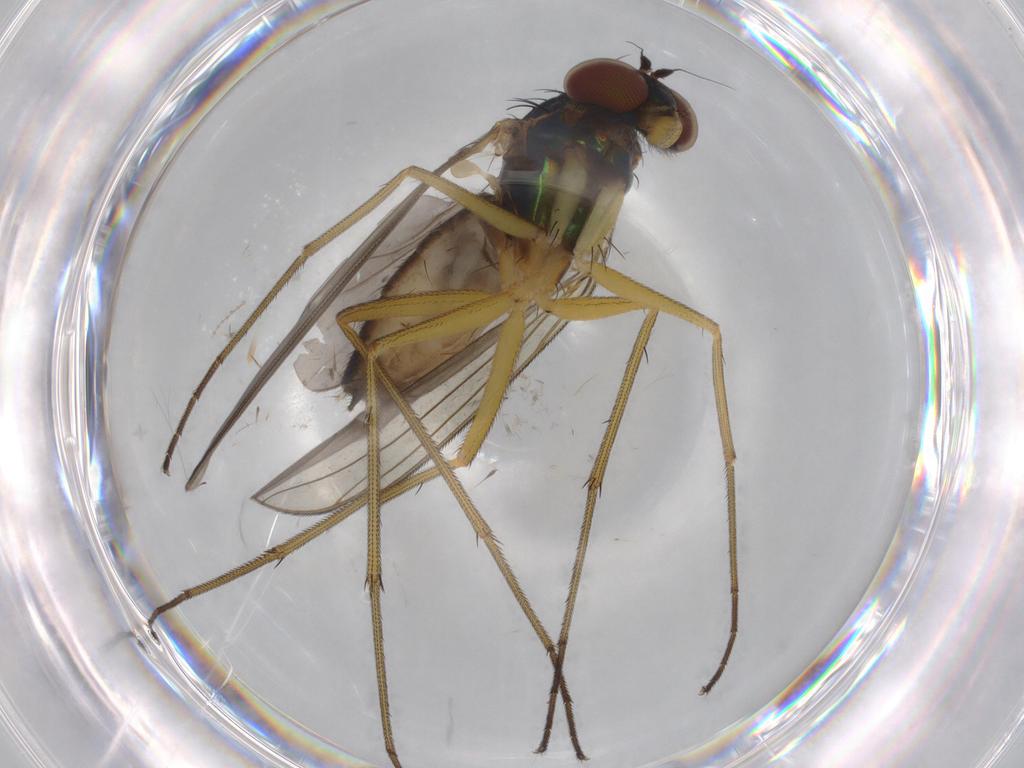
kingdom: Animalia
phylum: Arthropoda
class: Insecta
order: Diptera
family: Dolichopodidae
